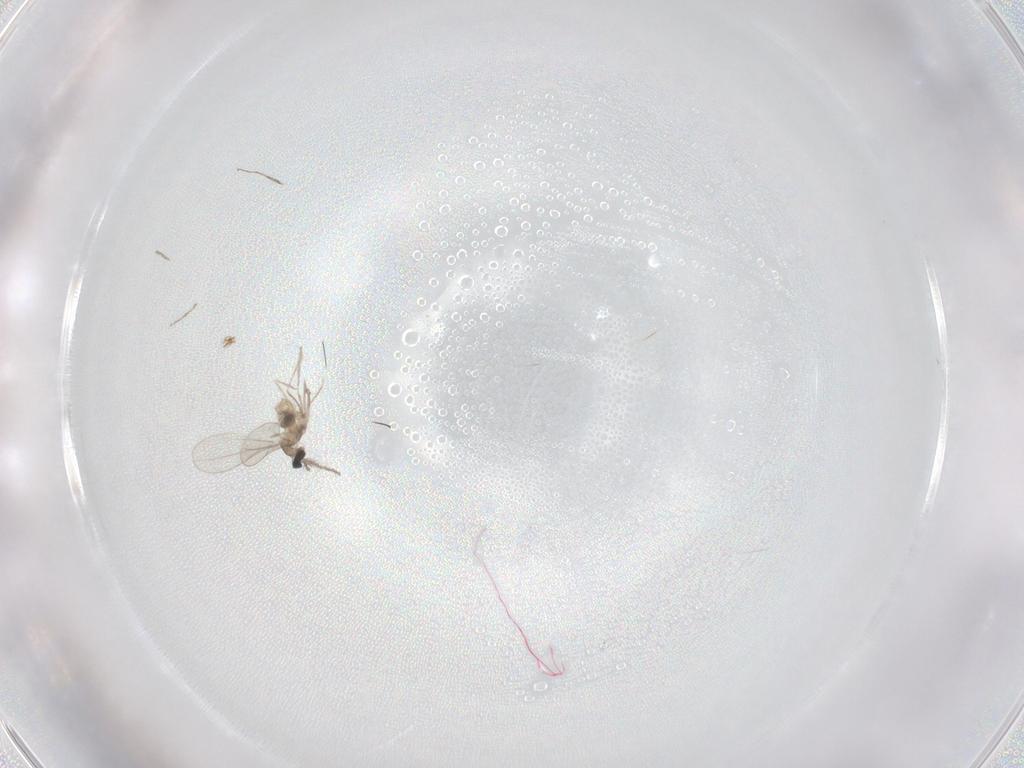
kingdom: Animalia
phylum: Arthropoda
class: Insecta
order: Diptera
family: Cecidomyiidae
